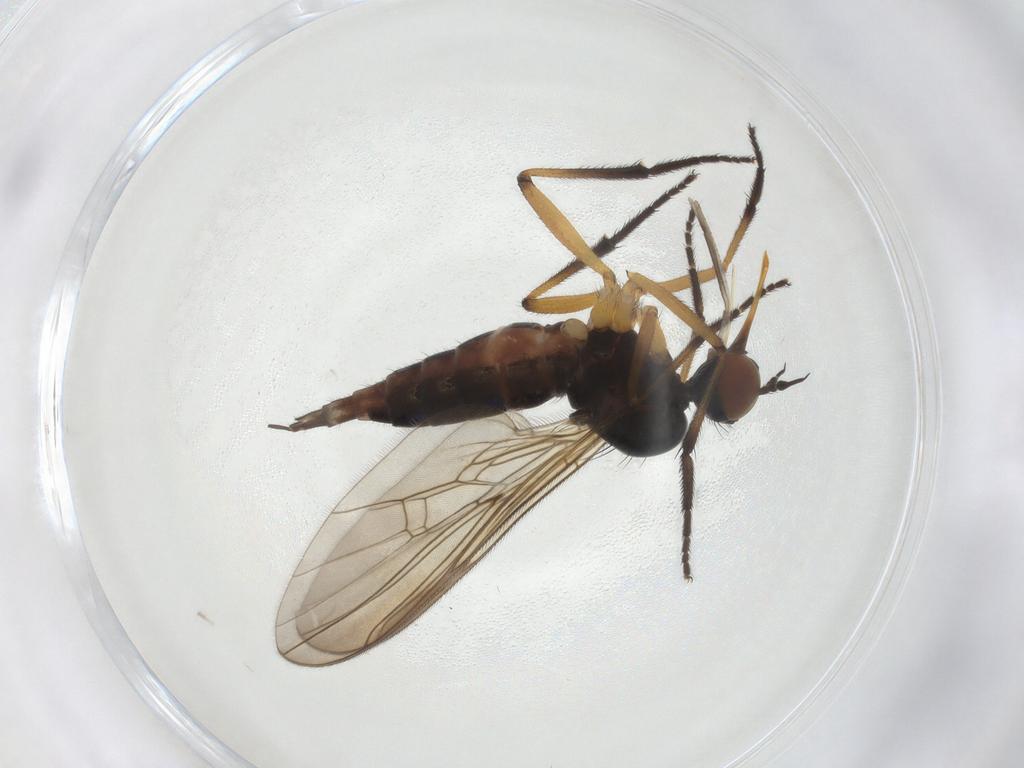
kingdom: Animalia
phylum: Arthropoda
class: Insecta
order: Diptera
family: Empididae
